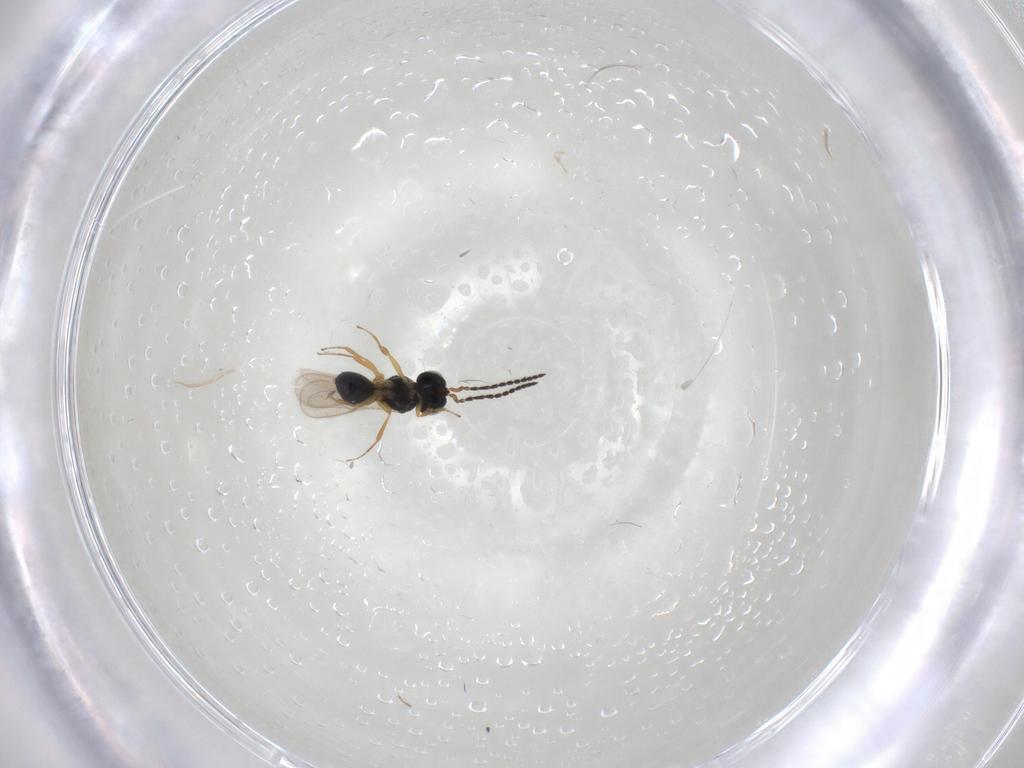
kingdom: Animalia
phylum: Arthropoda
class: Insecta
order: Hymenoptera
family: Scelionidae
